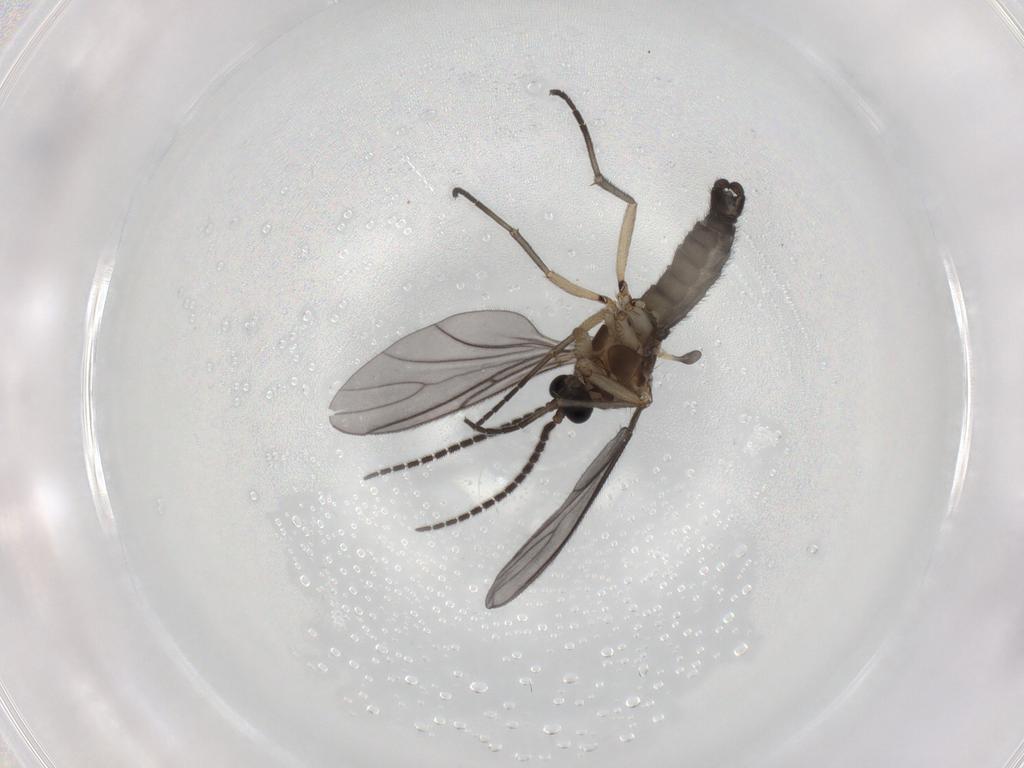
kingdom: Animalia
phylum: Arthropoda
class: Insecta
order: Diptera
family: Sciaridae
